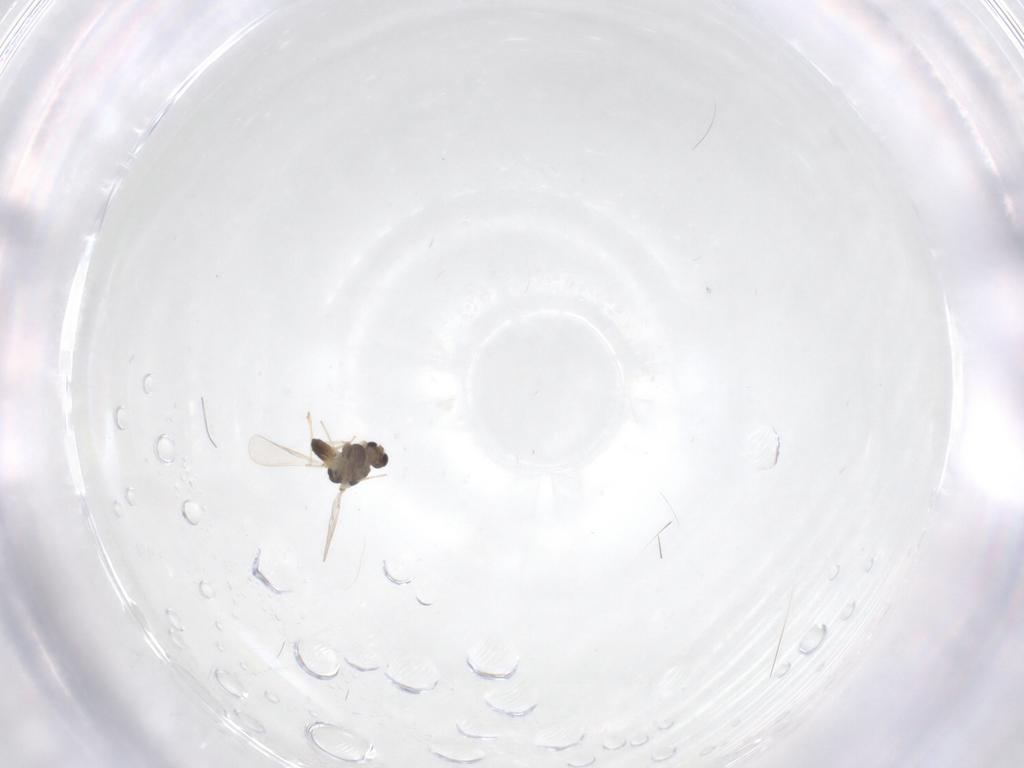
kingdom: Animalia
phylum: Arthropoda
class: Insecta
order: Diptera
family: Chironomidae
